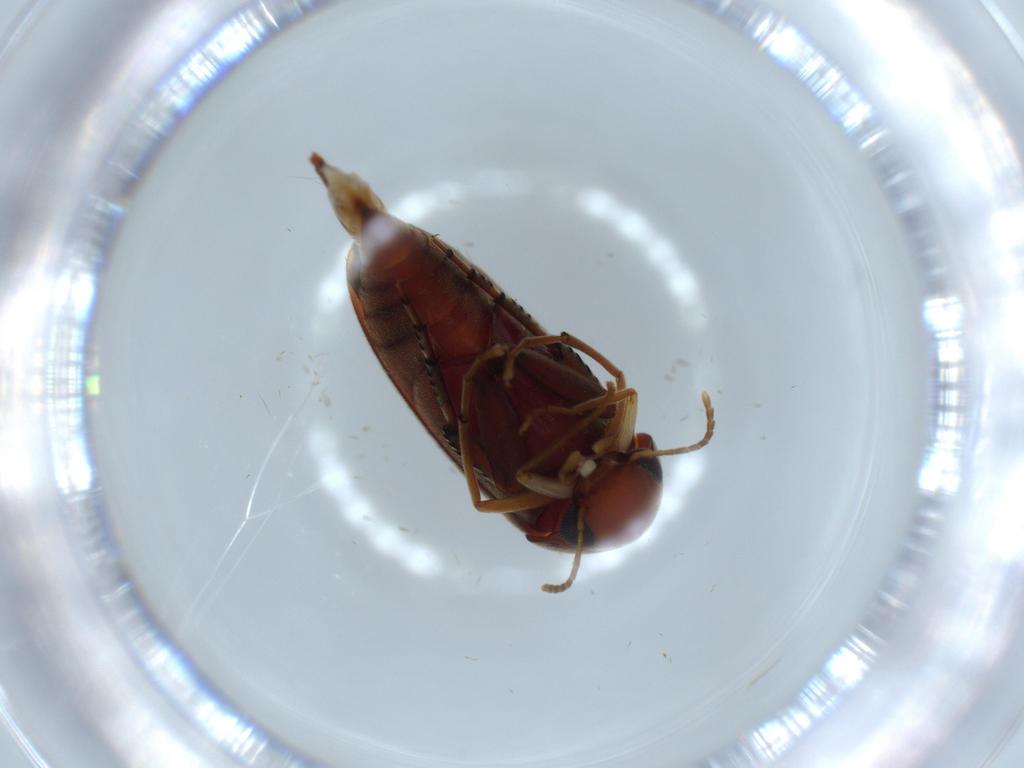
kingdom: Animalia
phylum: Arthropoda
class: Insecta
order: Coleoptera
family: Chrysomelidae
